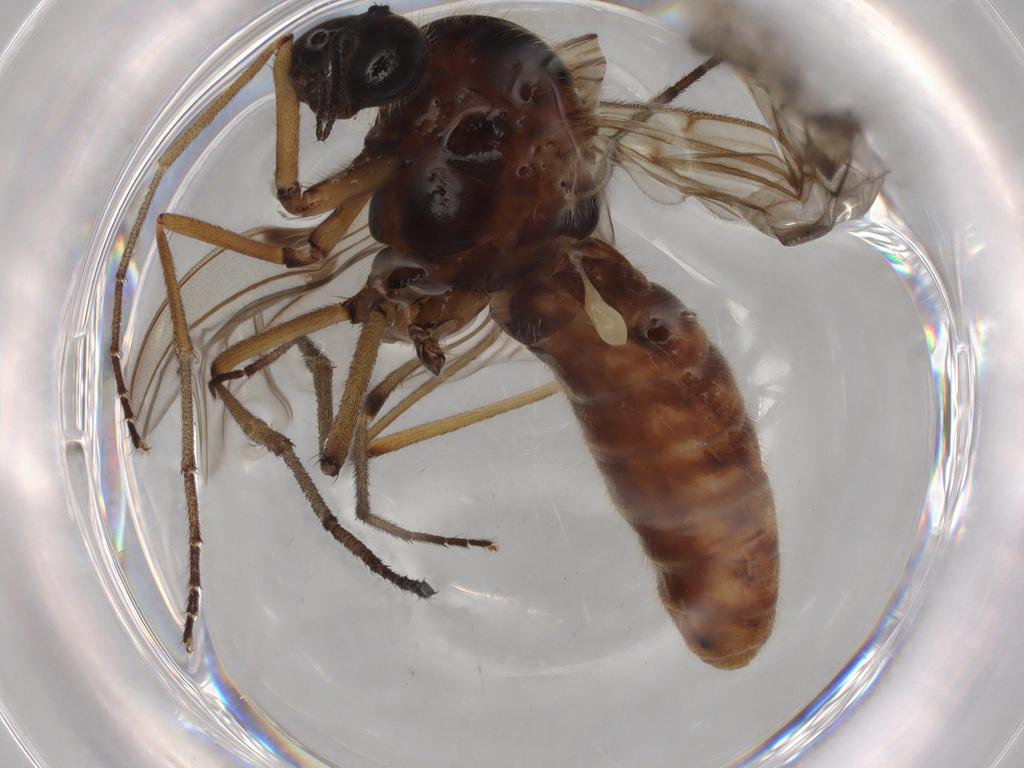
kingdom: Animalia
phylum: Arthropoda
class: Insecta
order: Diptera
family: Anisopodidae
